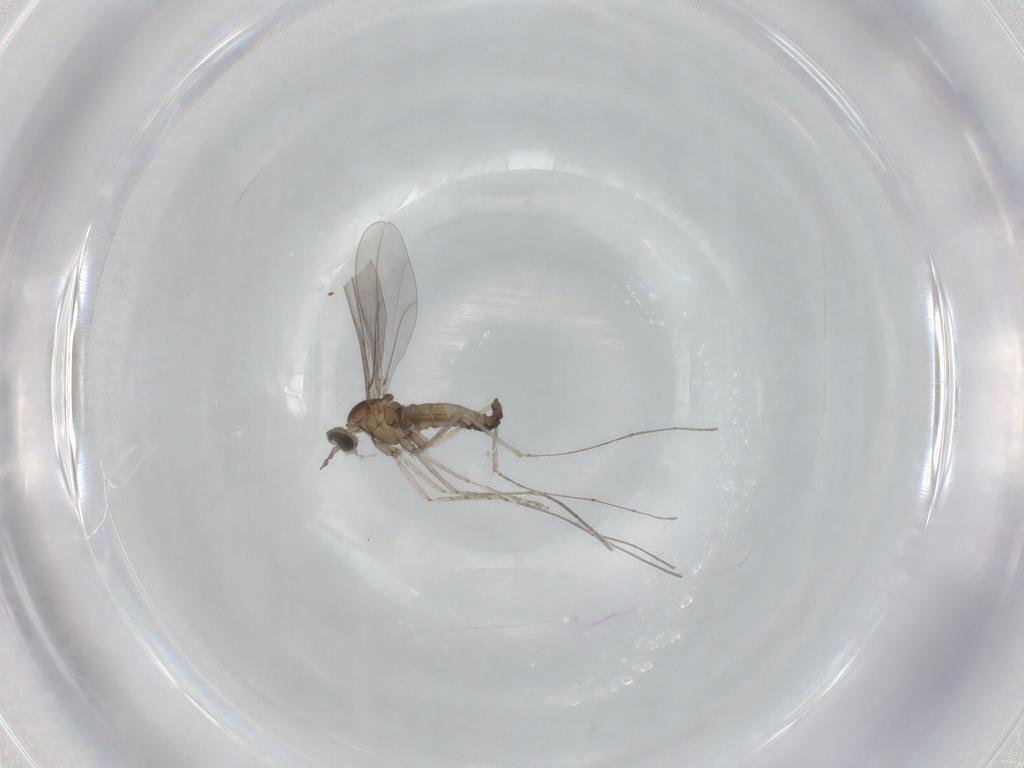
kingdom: Animalia
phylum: Arthropoda
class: Insecta
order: Diptera
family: Cecidomyiidae
